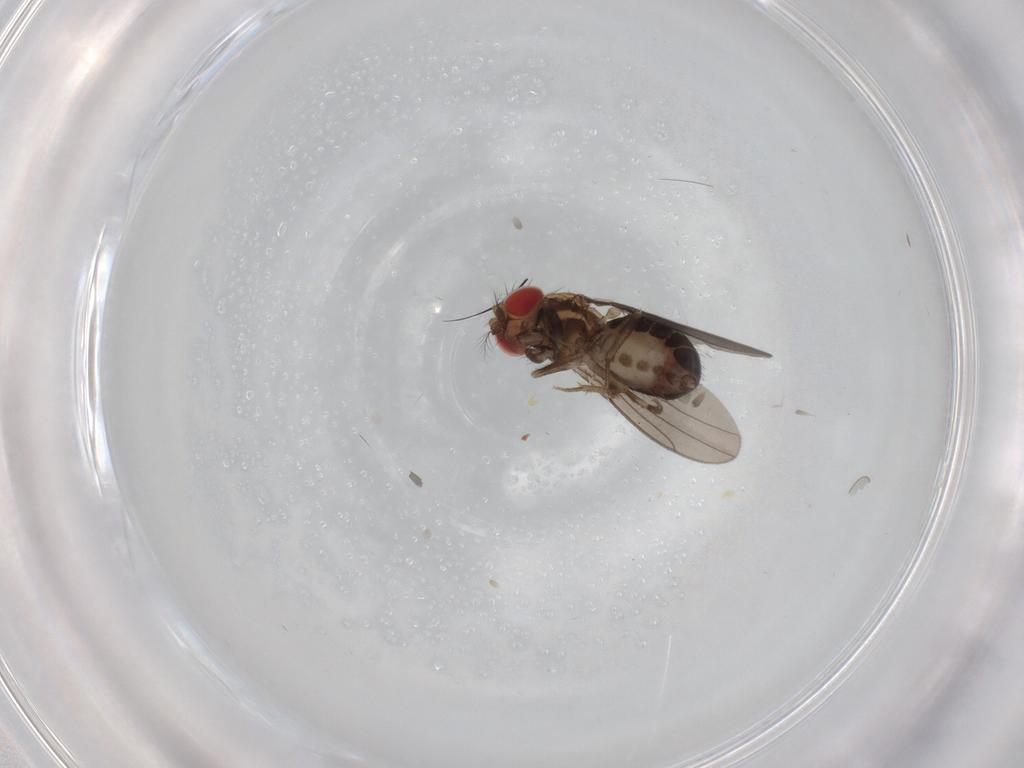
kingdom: Animalia
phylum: Arthropoda
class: Insecta
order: Diptera
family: Drosophilidae
